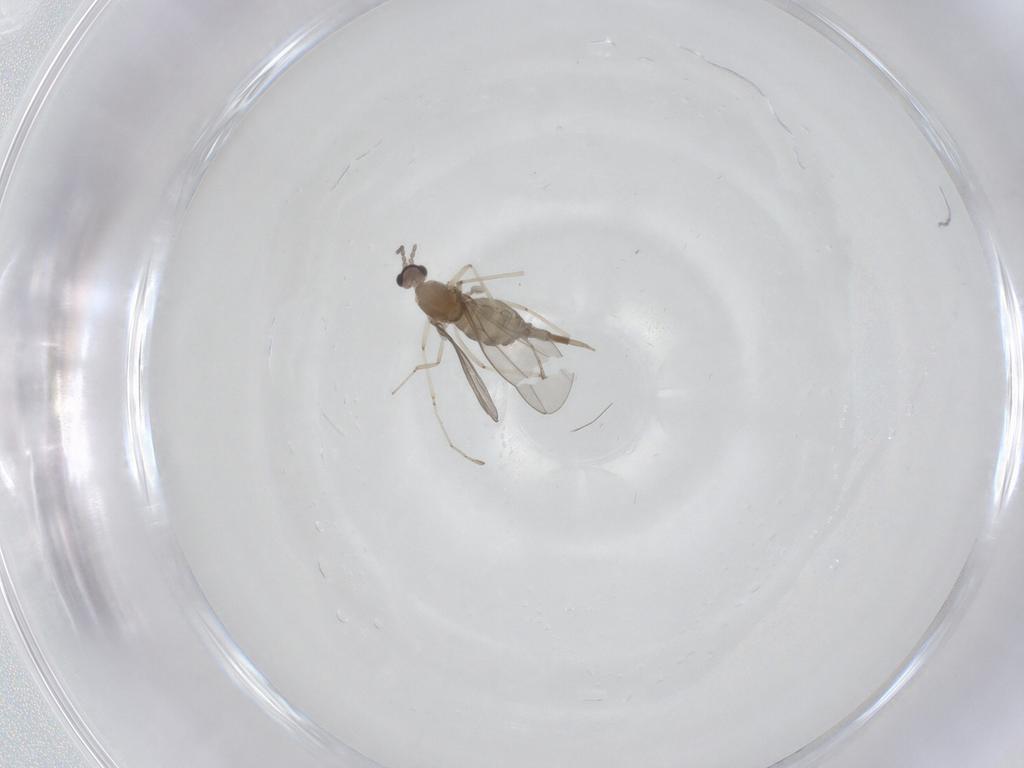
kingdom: Animalia
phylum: Arthropoda
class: Insecta
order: Diptera
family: Cecidomyiidae
